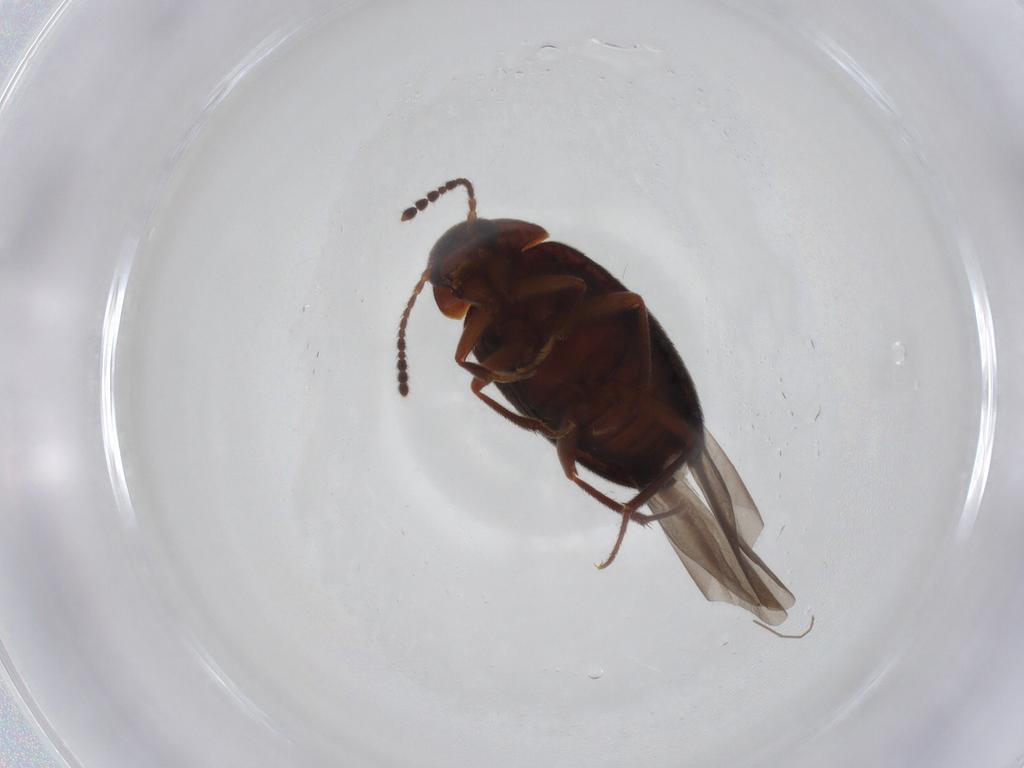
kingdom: Animalia
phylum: Arthropoda
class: Insecta
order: Coleoptera
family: Leiodidae
